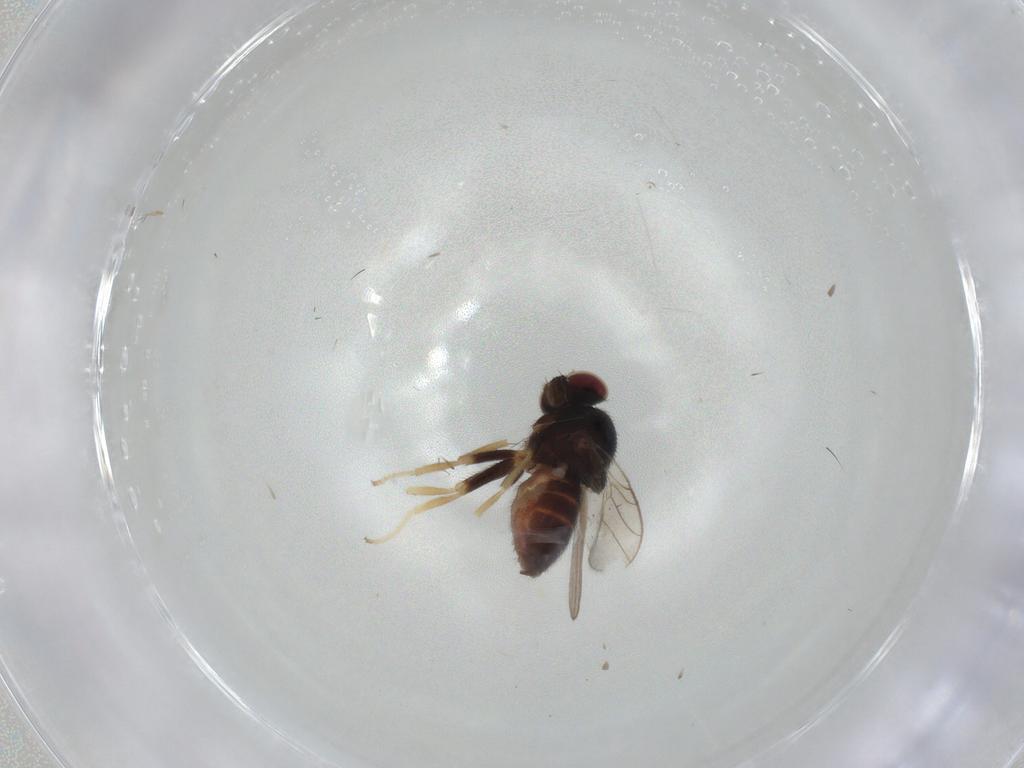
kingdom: Animalia
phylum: Arthropoda
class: Insecta
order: Diptera
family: Chloropidae
